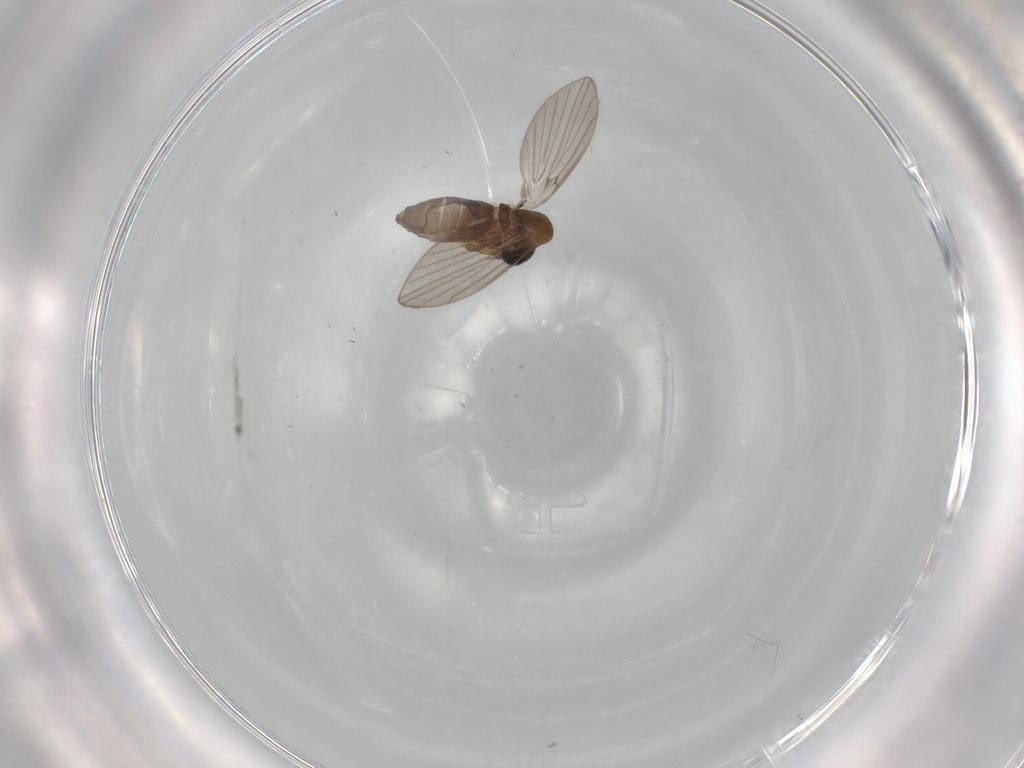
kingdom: Animalia
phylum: Arthropoda
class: Insecta
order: Diptera
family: Psychodidae
